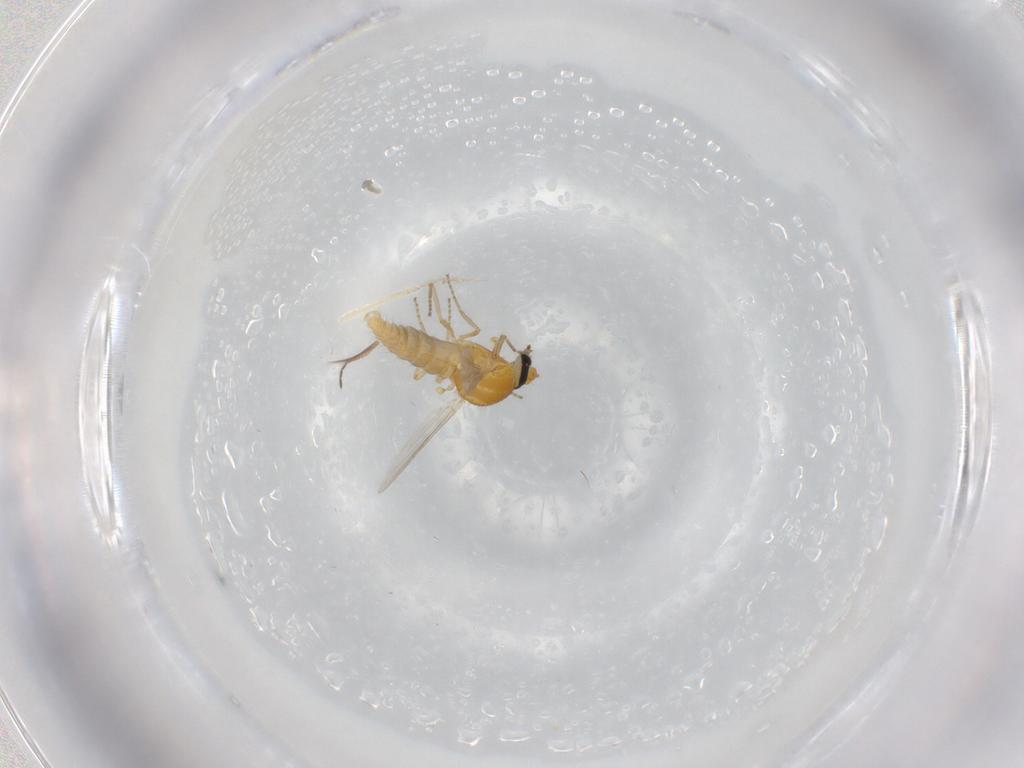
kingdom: Animalia
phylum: Arthropoda
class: Insecta
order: Diptera
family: Ceratopogonidae
